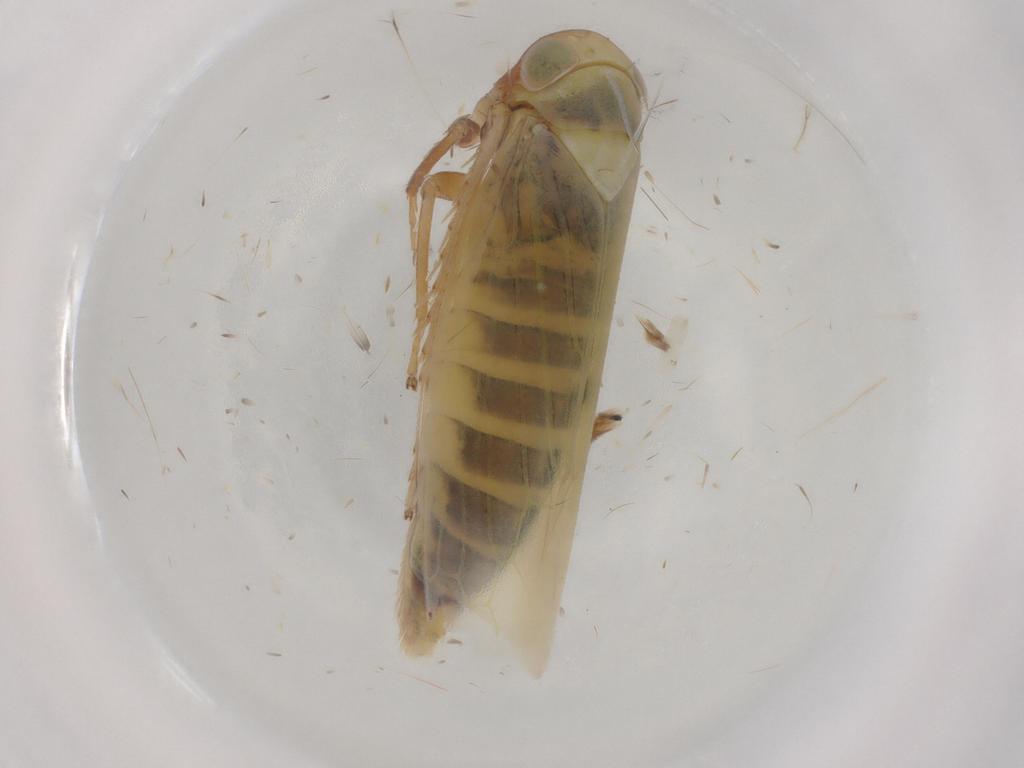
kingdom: Animalia
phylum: Arthropoda
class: Insecta
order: Hemiptera
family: Cicadellidae
